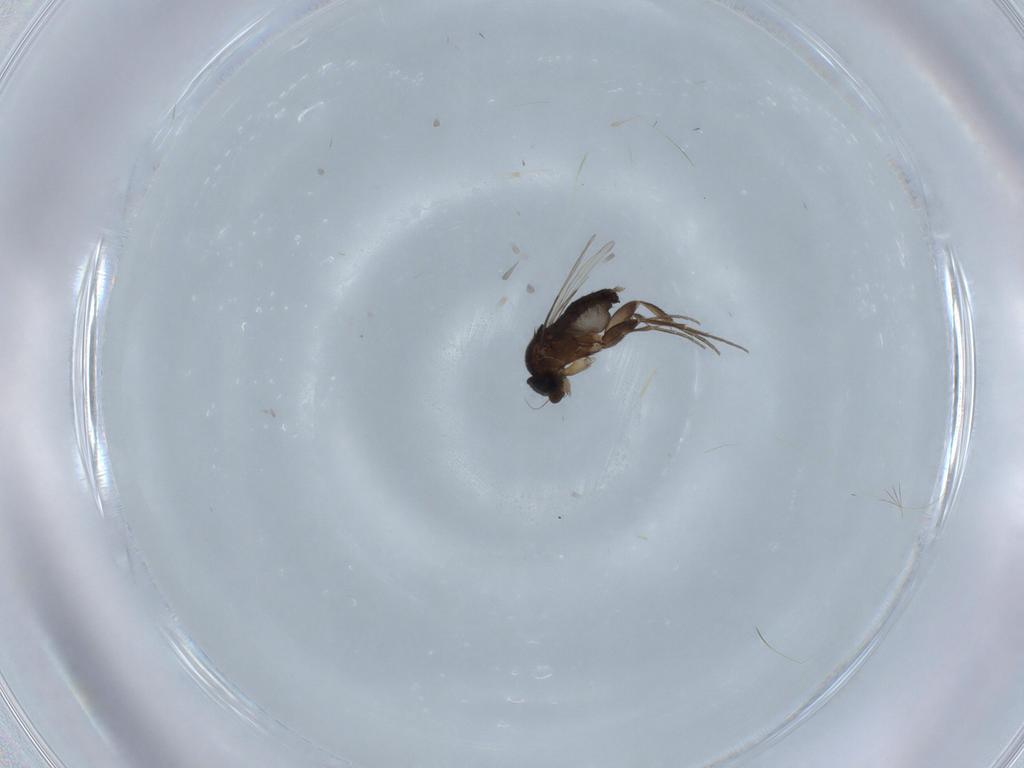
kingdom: Animalia
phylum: Arthropoda
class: Insecta
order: Diptera
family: Phoridae
